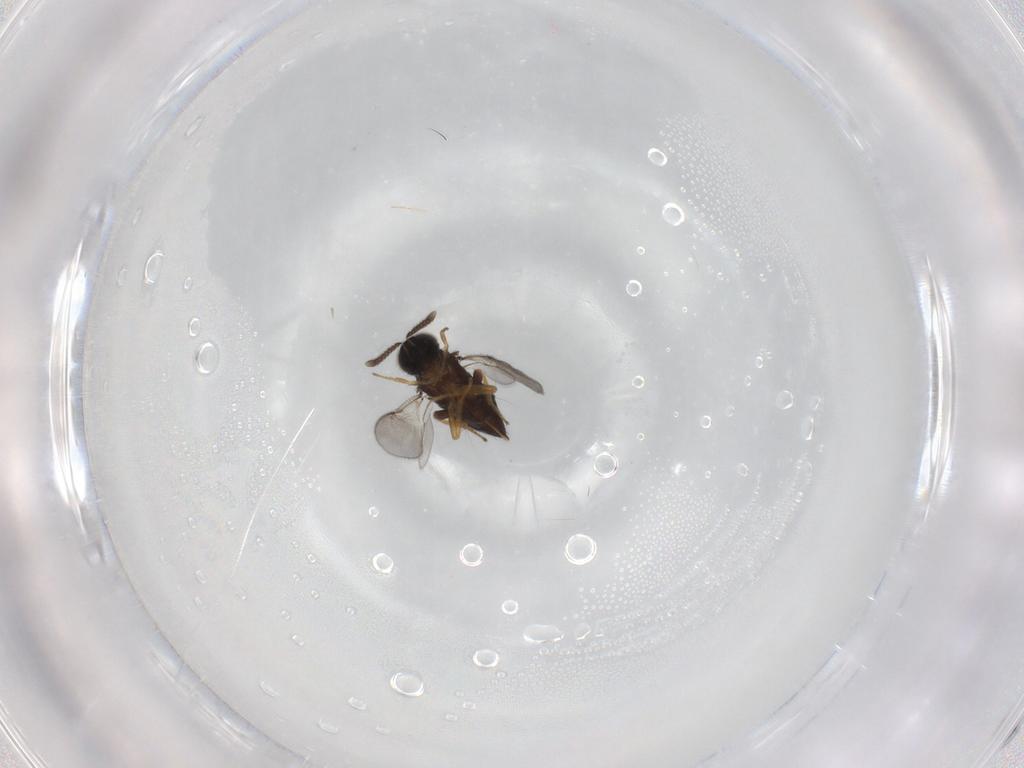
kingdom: Animalia
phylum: Arthropoda
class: Insecta
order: Hymenoptera
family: Encyrtidae
